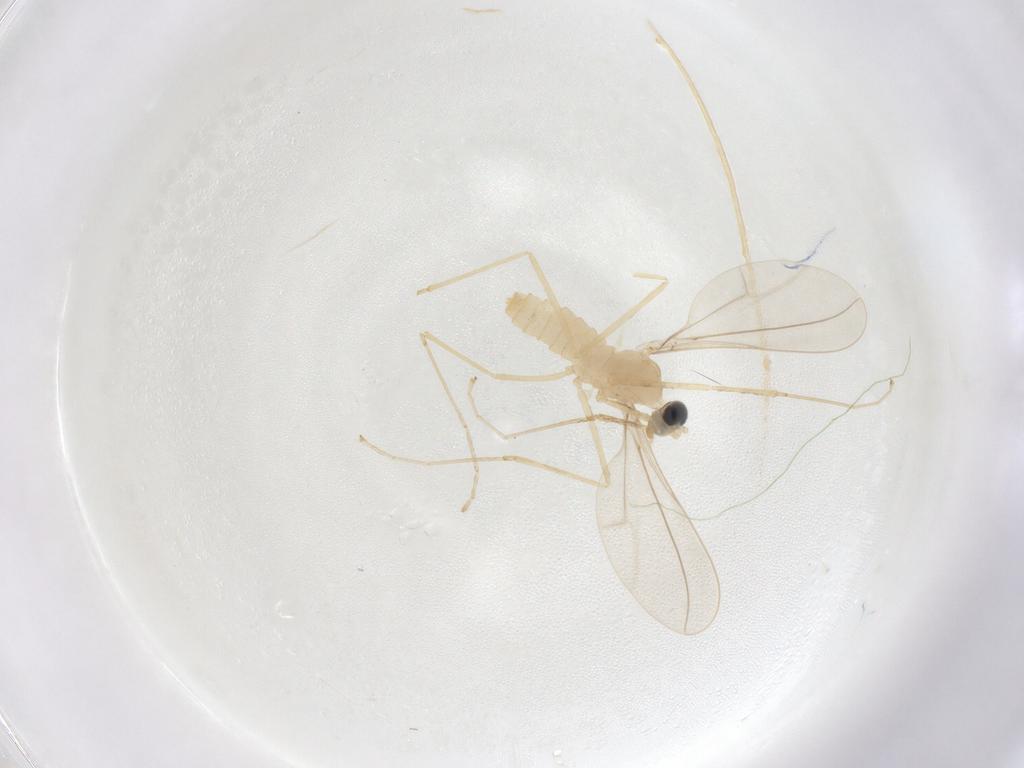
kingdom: Animalia
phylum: Arthropoda
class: Insecta
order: Diptera
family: Cecidomyiidae
